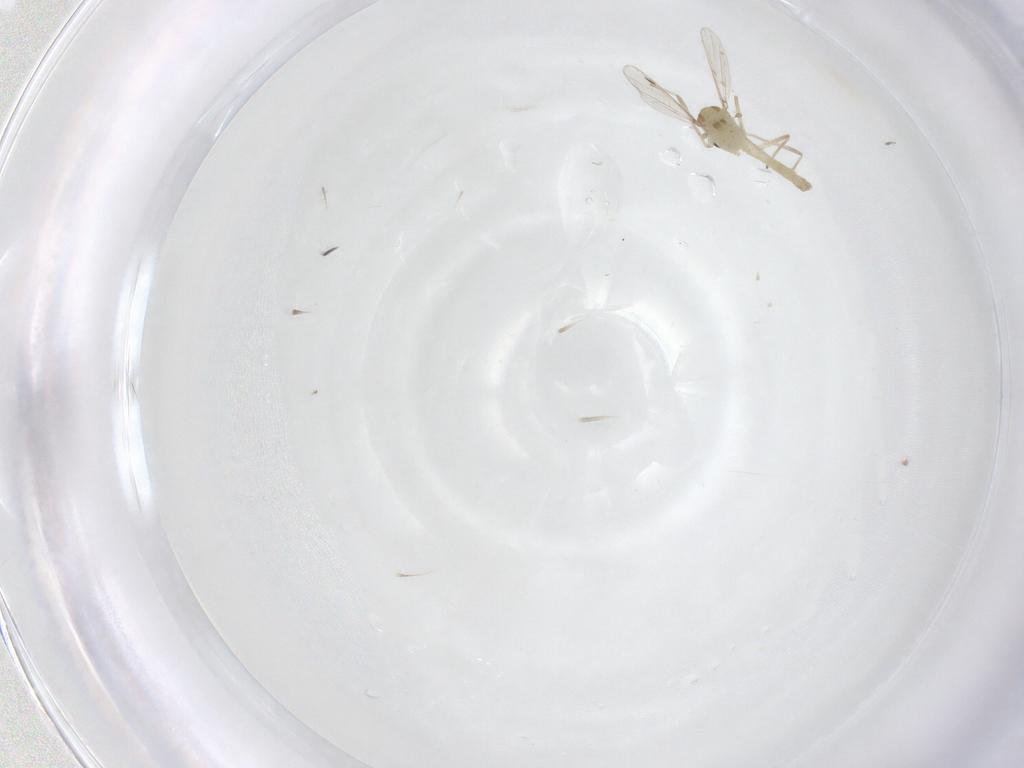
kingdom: Animalia
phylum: Arthropoda
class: Insecta
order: Diptera
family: Chironomidae
